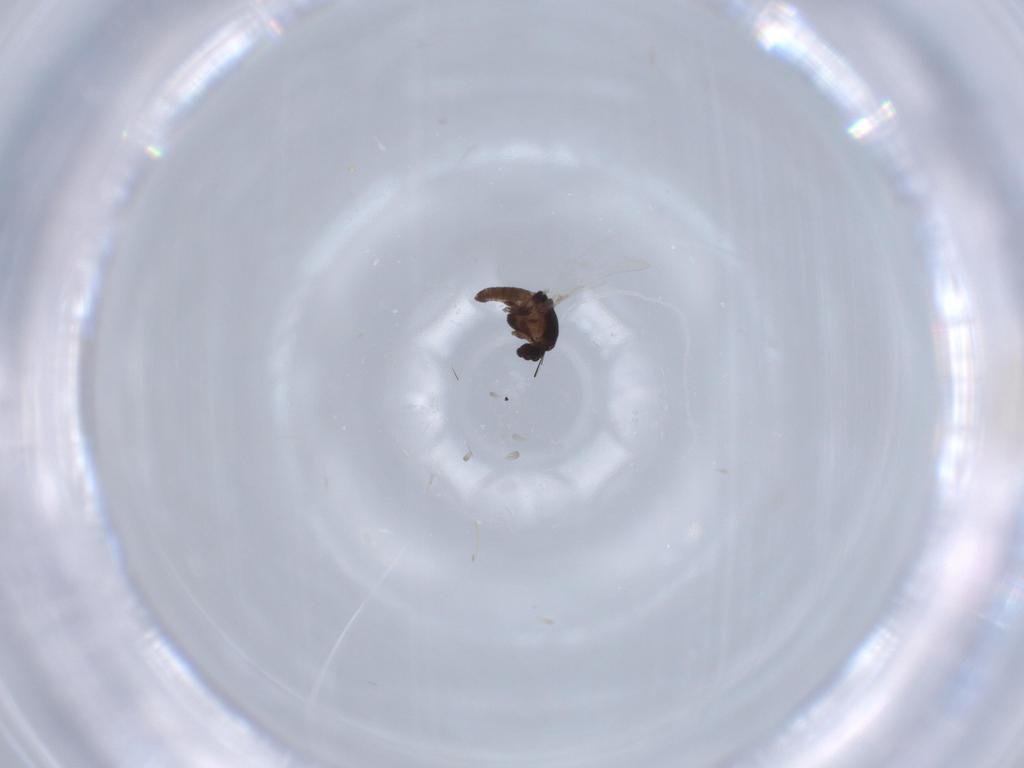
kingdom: Animalia
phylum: Arthropoda
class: Insecta
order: Diptera
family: Chironomidae
